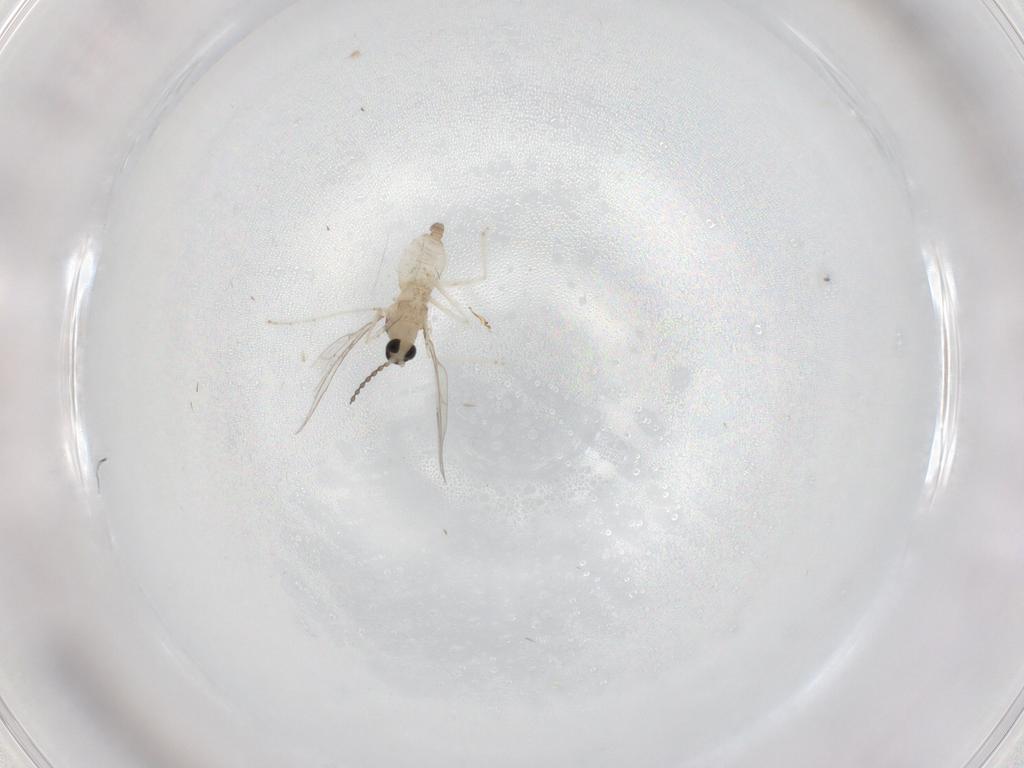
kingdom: Animalia
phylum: Arthropoda
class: Insecta
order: Diptera
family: Cecidomyiidae
